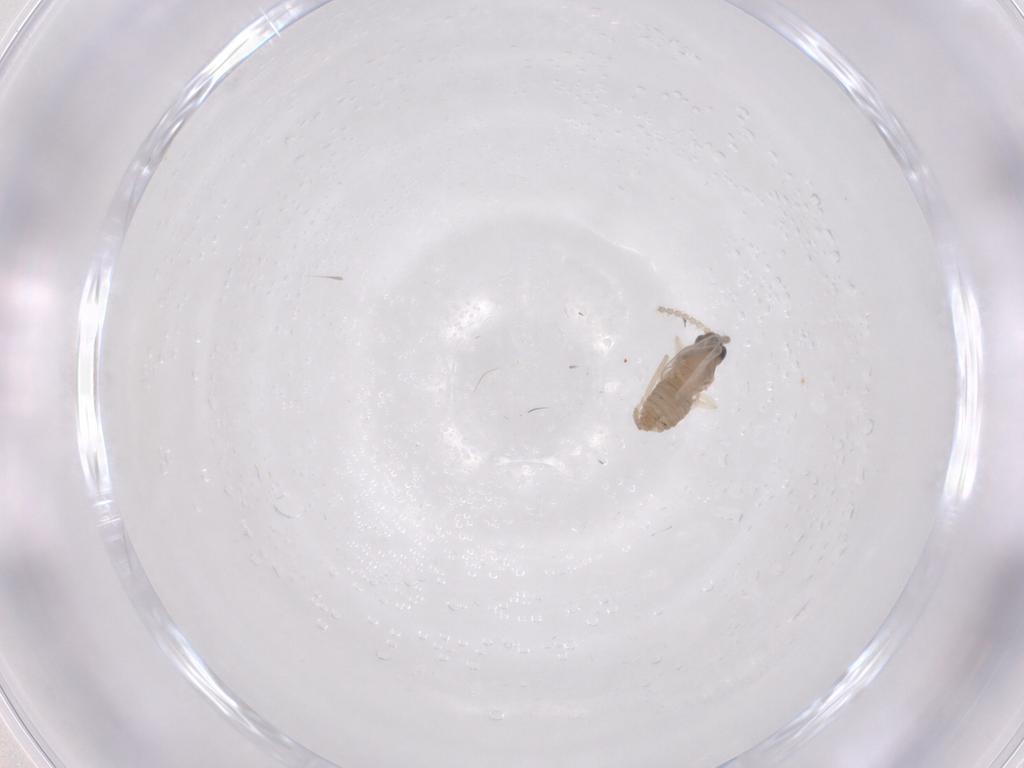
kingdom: Animalia
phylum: Arthropoda
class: Insecta
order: Diptera
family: Cecidomyiidae
